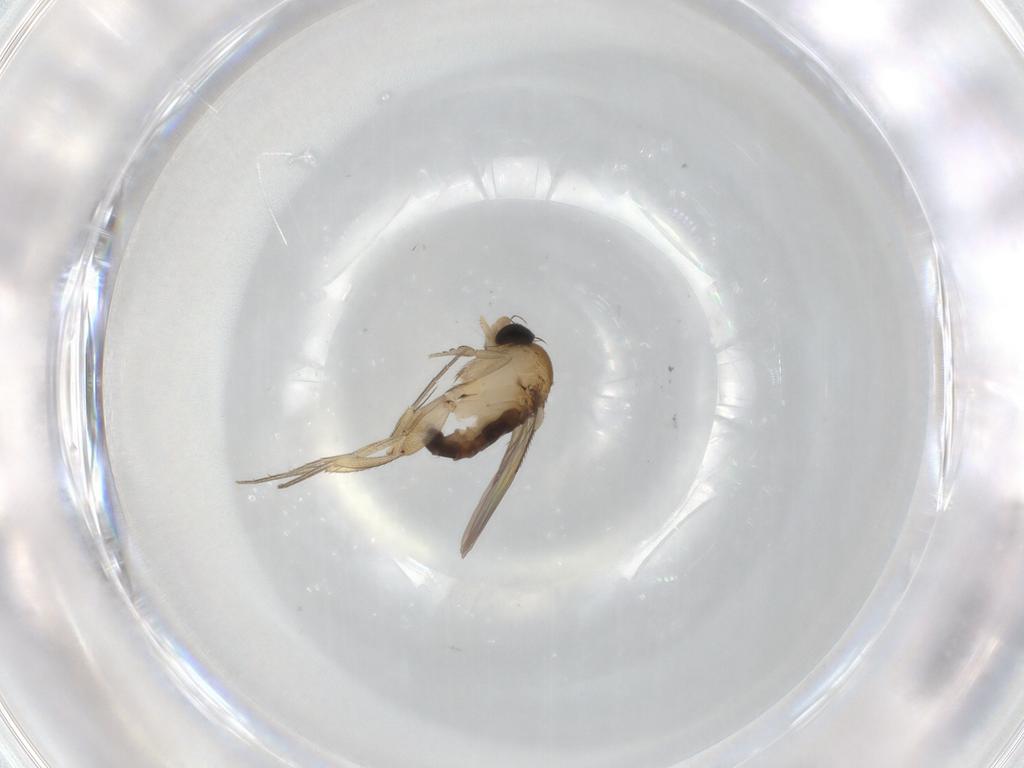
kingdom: Animalia
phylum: Arthropoda
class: Insecta
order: Diptera
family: Phoridae
